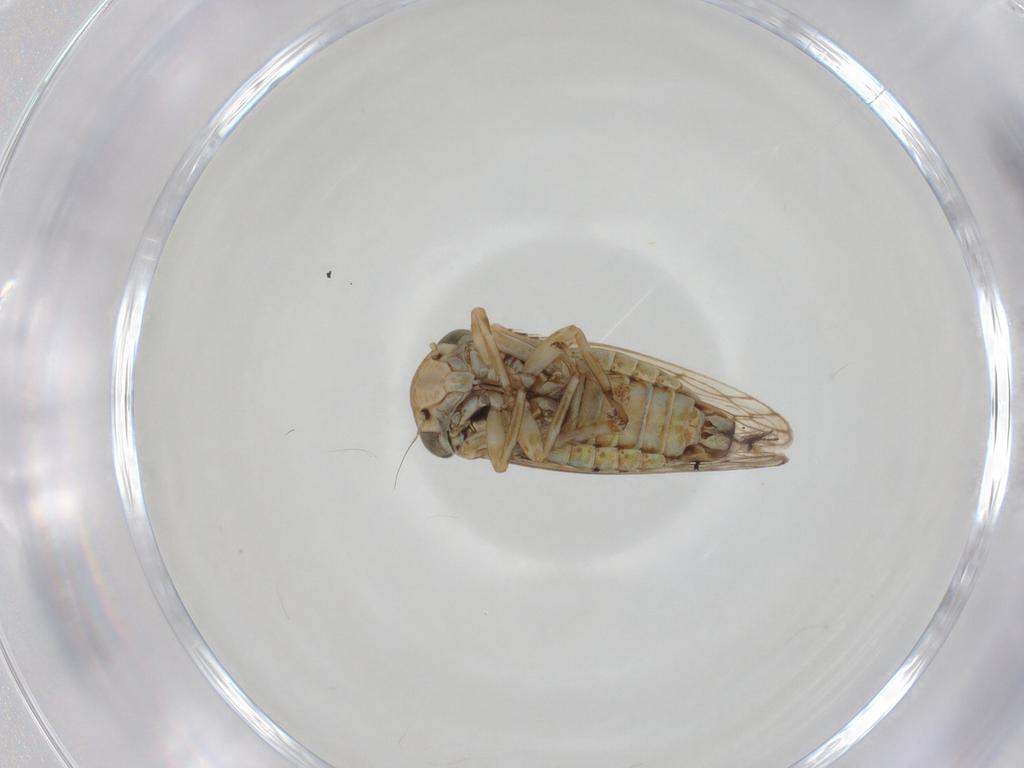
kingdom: Animalia
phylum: Arthropoda
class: Insecta
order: Hemiptera
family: Cicadellidae
